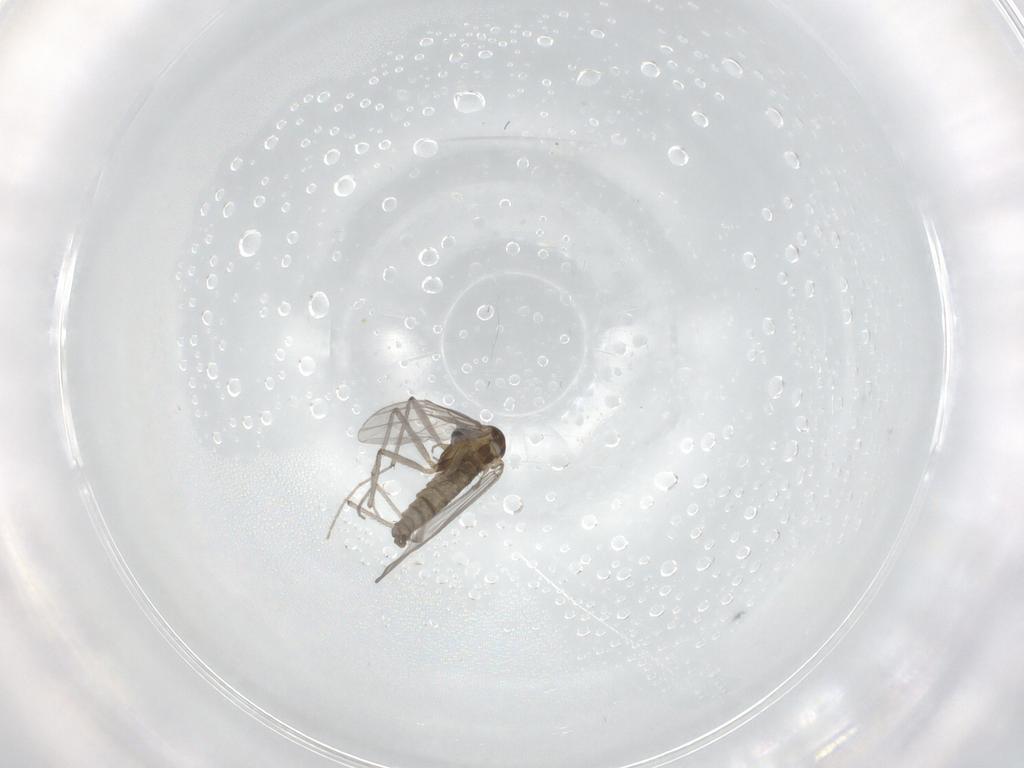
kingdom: Animalia
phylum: Arthropoda
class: Insecta
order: Diptera
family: Chironomidae
